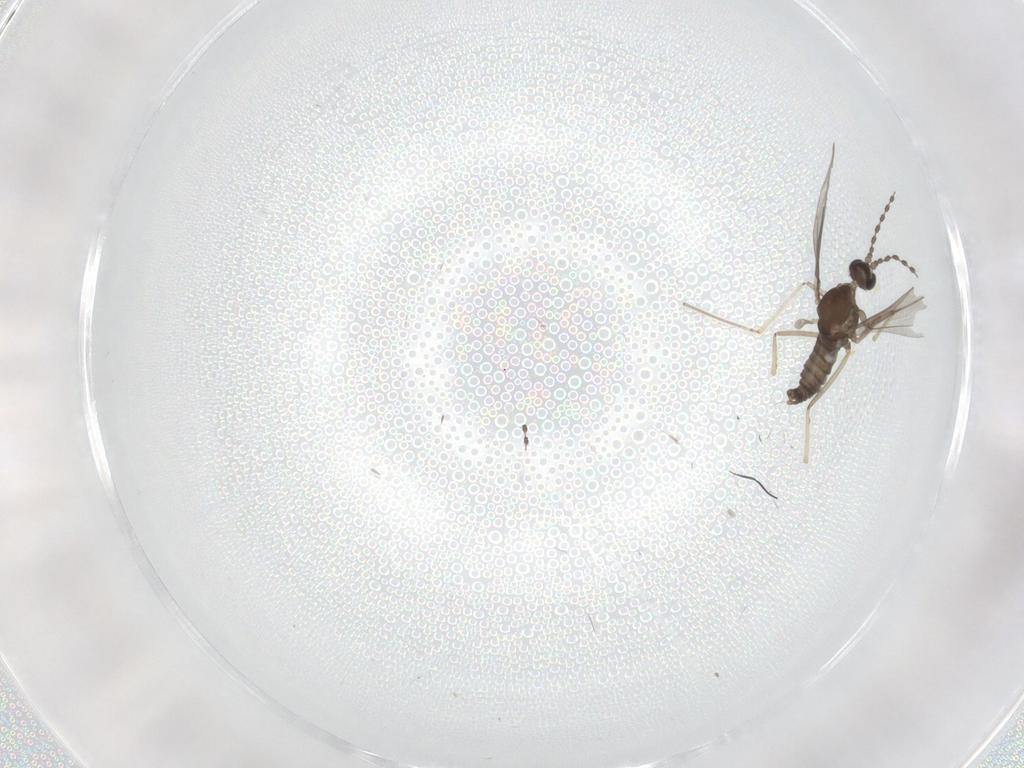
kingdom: Animalia
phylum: Arthropoda
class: Insecta
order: Diptera
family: Cecidomyiidae
